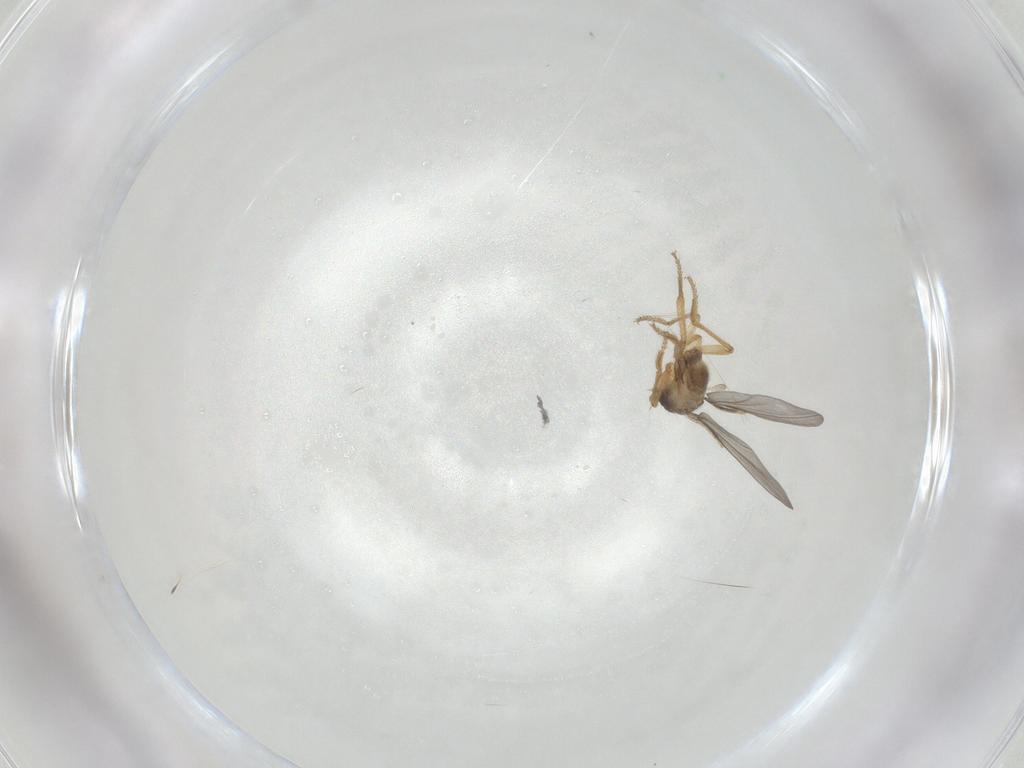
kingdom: Animalia
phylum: Arthropoda
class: Insecta
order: Diptera
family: Phoridae
